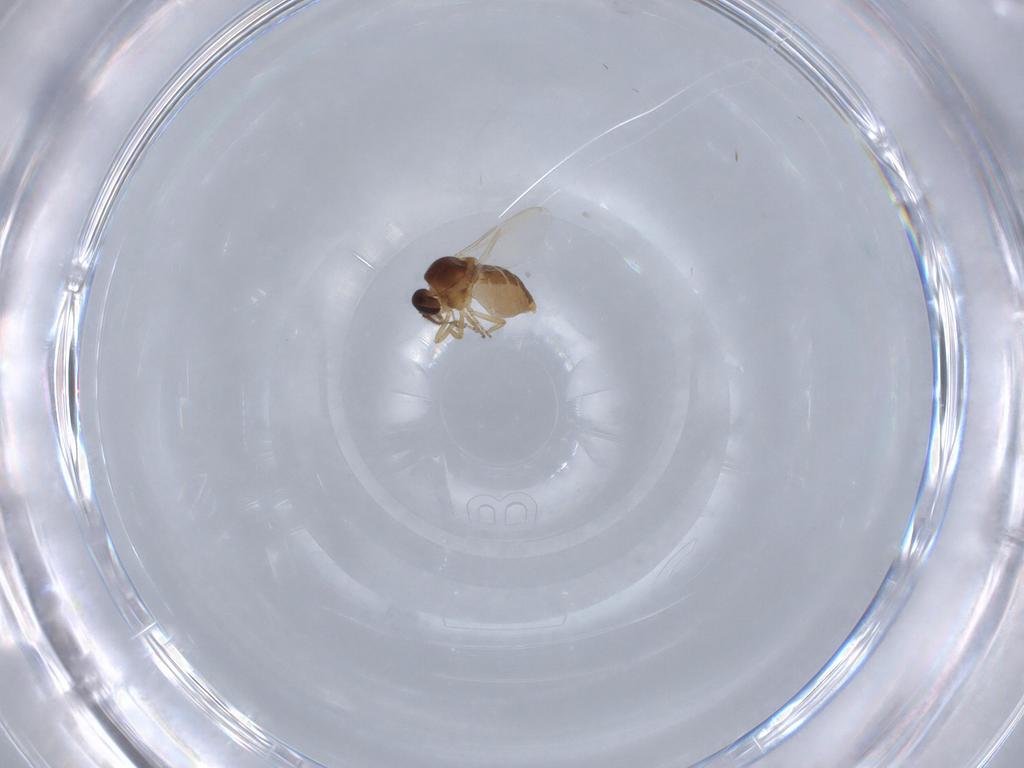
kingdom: Animalia
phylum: Arthropoda
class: Insecta
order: Diptera
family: Ceratopogonidae
